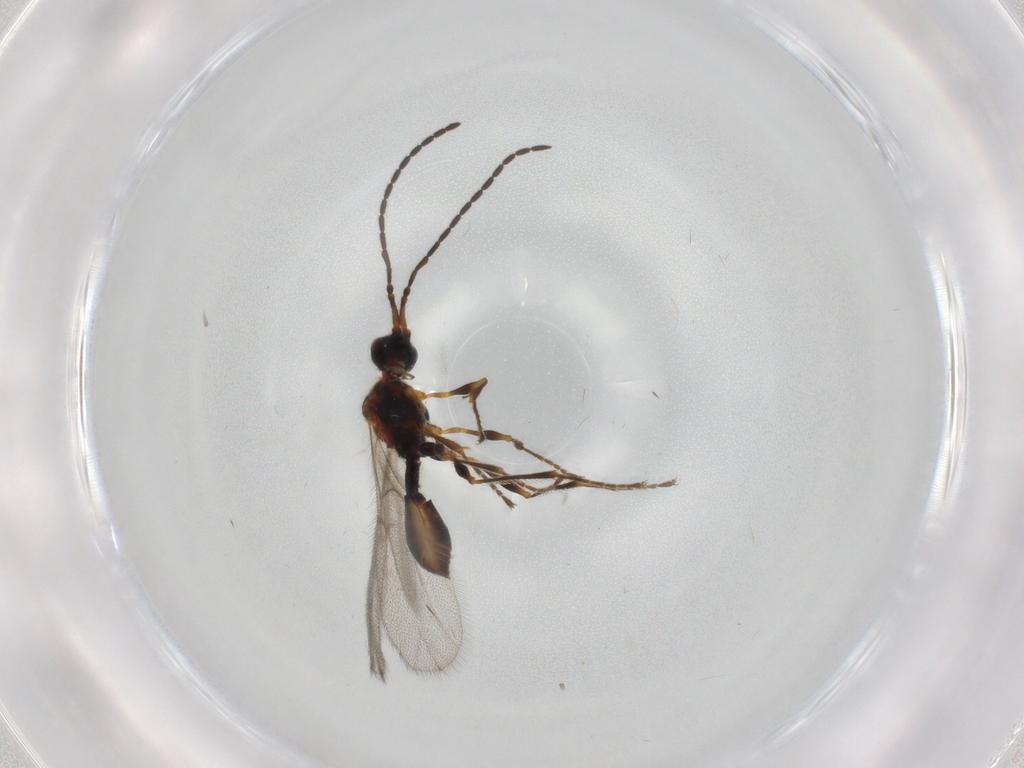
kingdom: Animalia
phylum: Arthropoda
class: Insecta
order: Hymenoptera
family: Diapriidae
